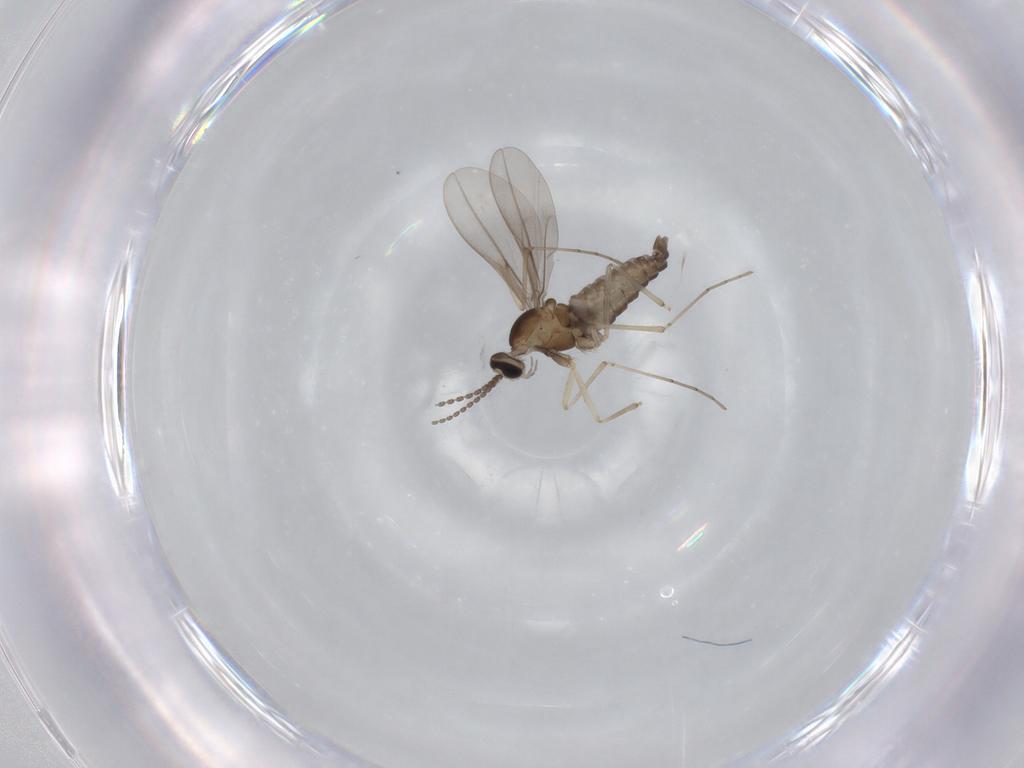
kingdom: Animalia
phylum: Arthropoda
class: Insecta
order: Diptera
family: Cecidomyiidae
